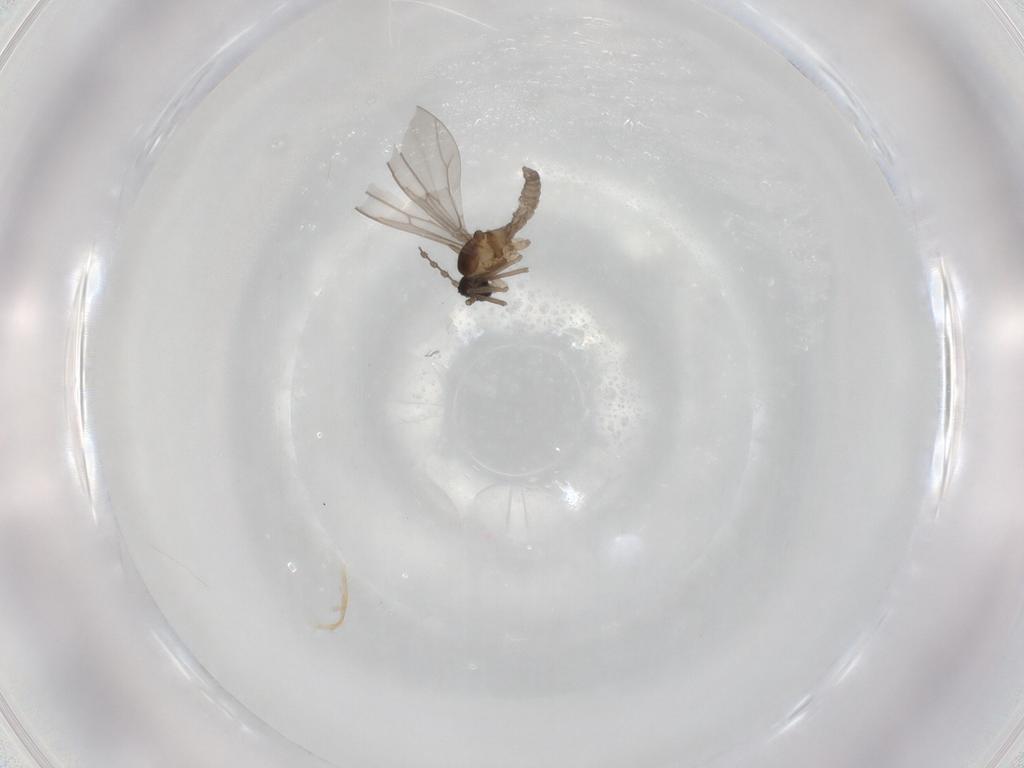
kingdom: Animalia
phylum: Arthropoda
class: Insecta
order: Diptera
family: Cecidomyiidae
